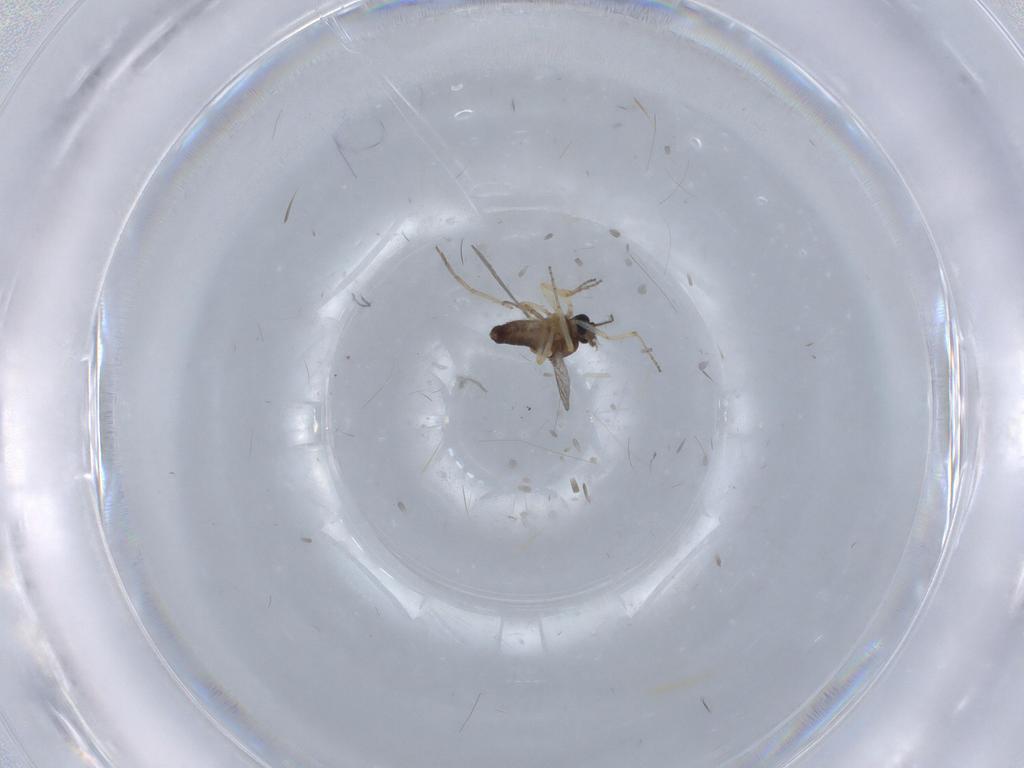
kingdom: Animalia
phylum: Arthropoda
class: Insecta
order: Diptera
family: Ceratopogonidae
